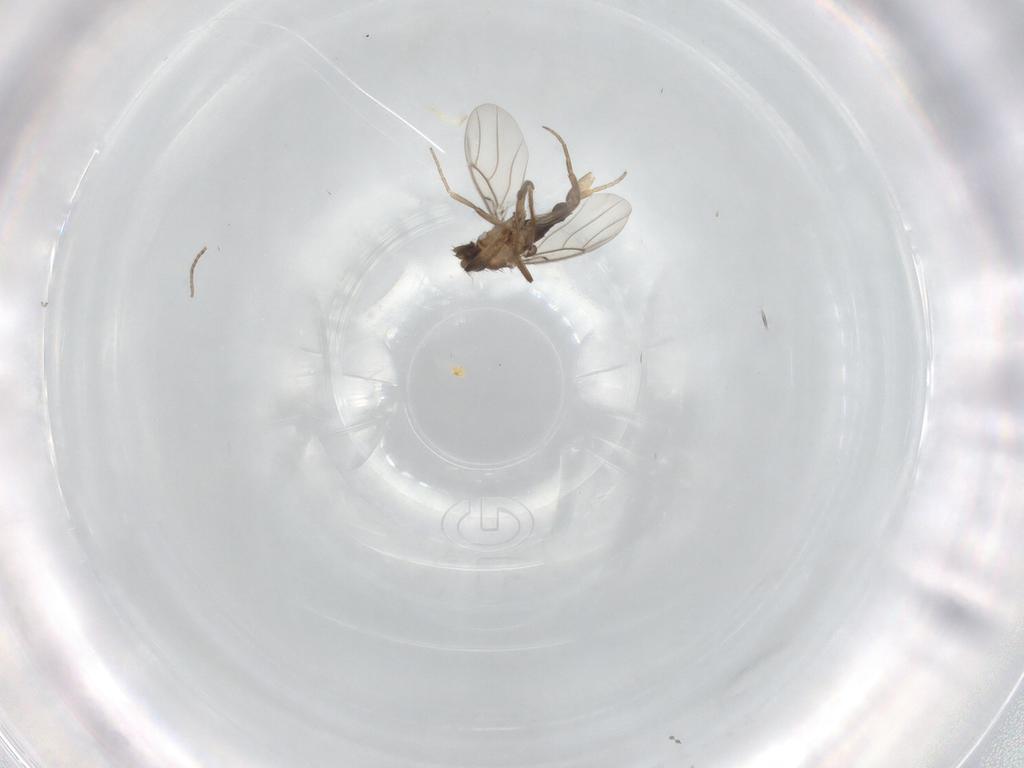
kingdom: Animalia
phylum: Arthropoda
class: Insecta
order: Diptera
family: Phoridae
